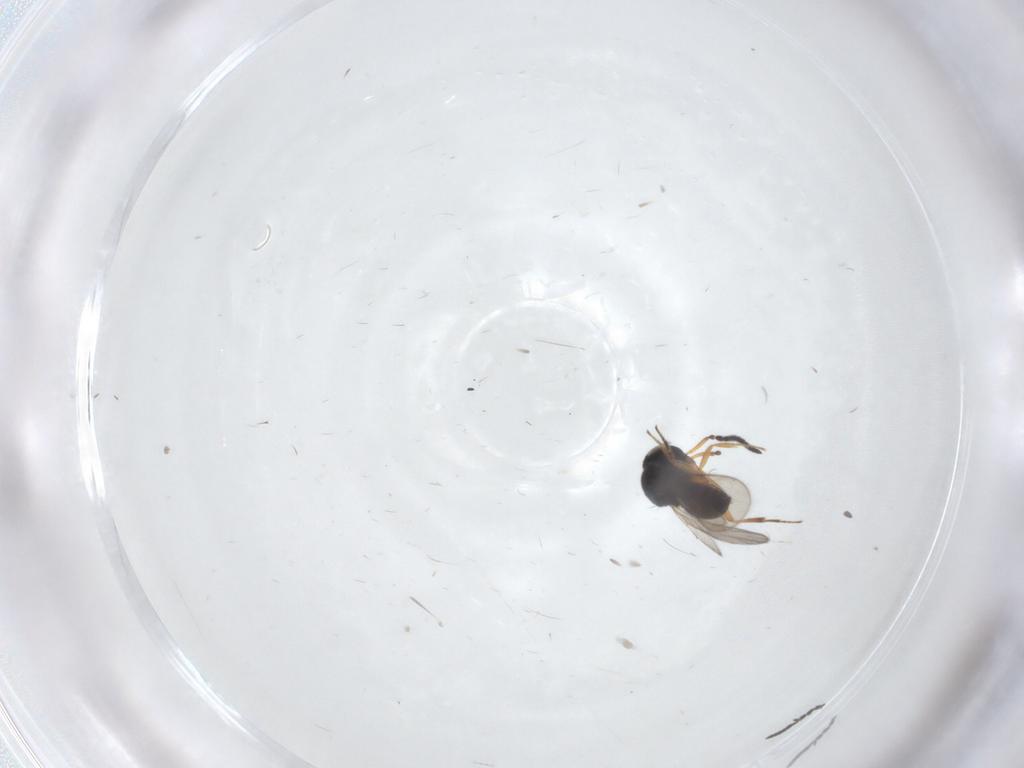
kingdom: Animalia
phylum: Arthropoda
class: Insecta
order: Hymenoptera
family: Scelionidae
